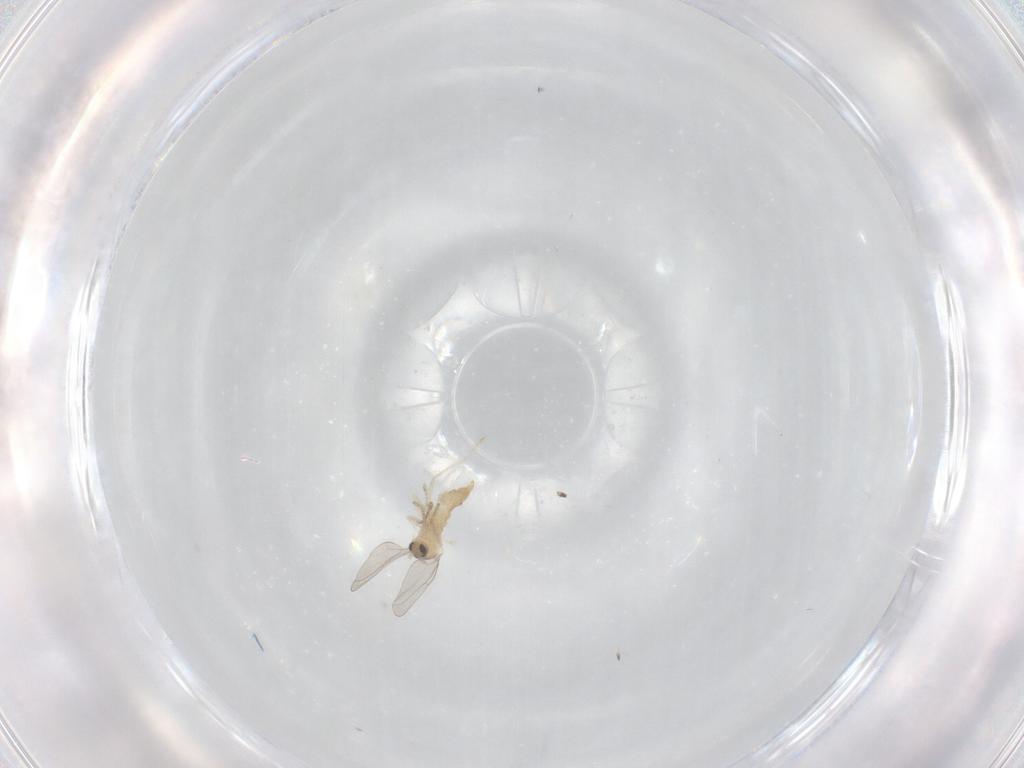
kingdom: Animalia
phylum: Arthropoda
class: Insecta
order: Diptera
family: Cecidomyiidae
